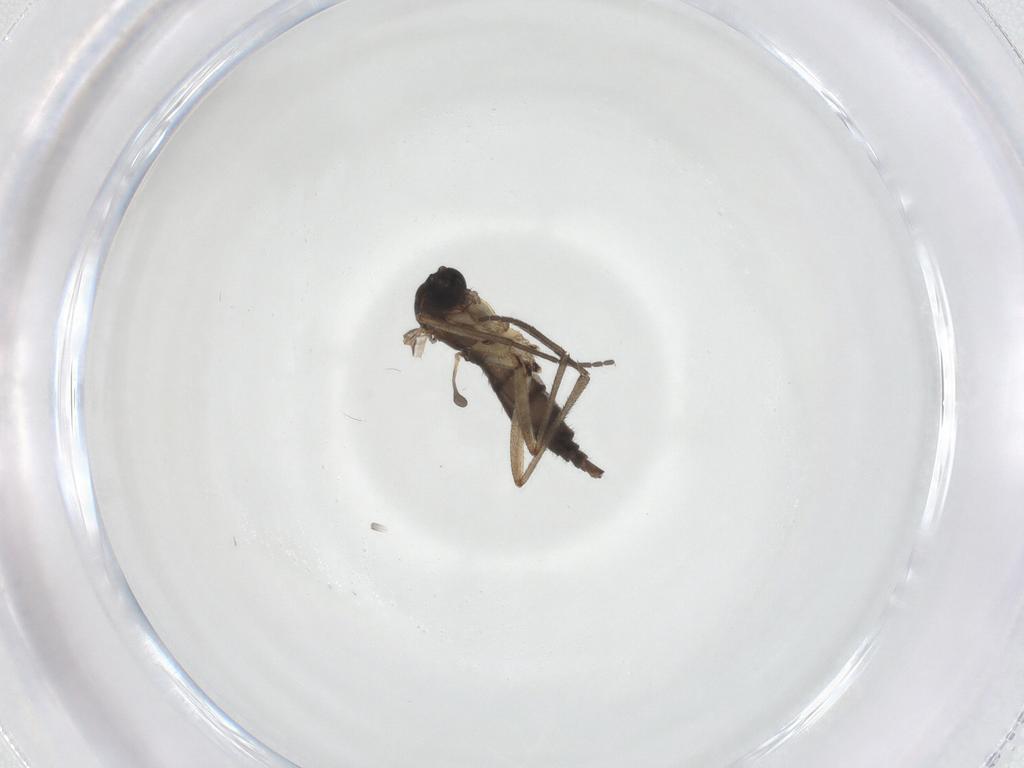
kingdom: Animalia
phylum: Arthropoda
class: Insecta
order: Diptera
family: Sciaridae
